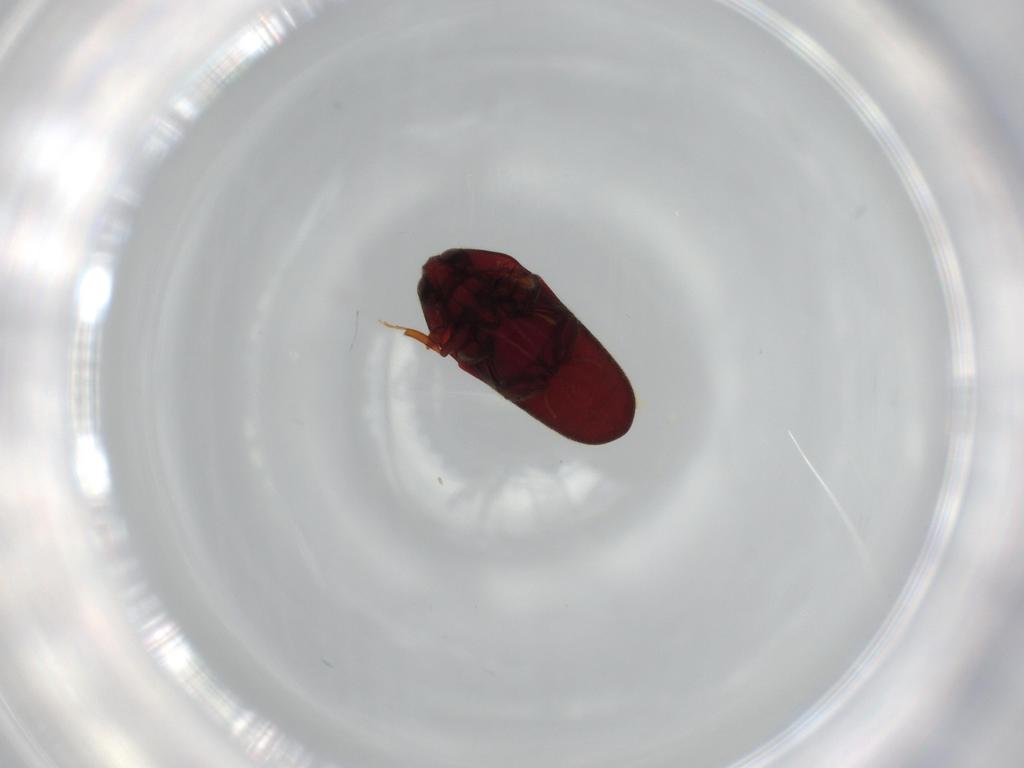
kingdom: Animalia
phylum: Arthropoda
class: Insecta
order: Coleoptera
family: Throscidae
